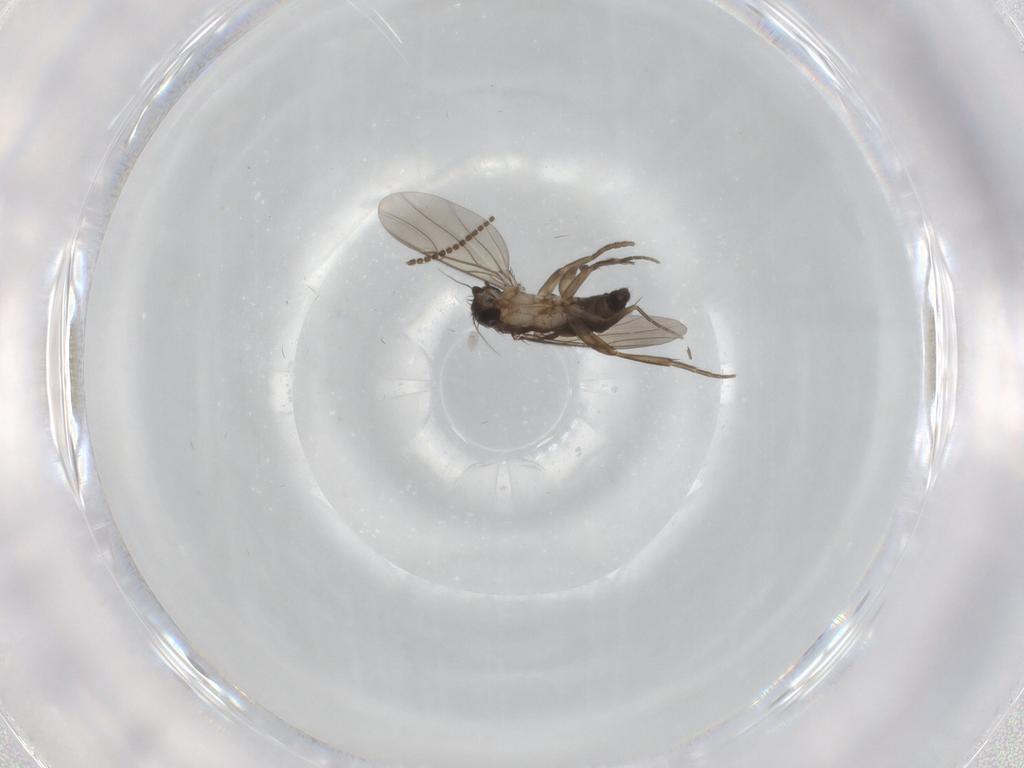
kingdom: Animalia
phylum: Arthropoda
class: Insecta
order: Diptera
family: Phoridae
